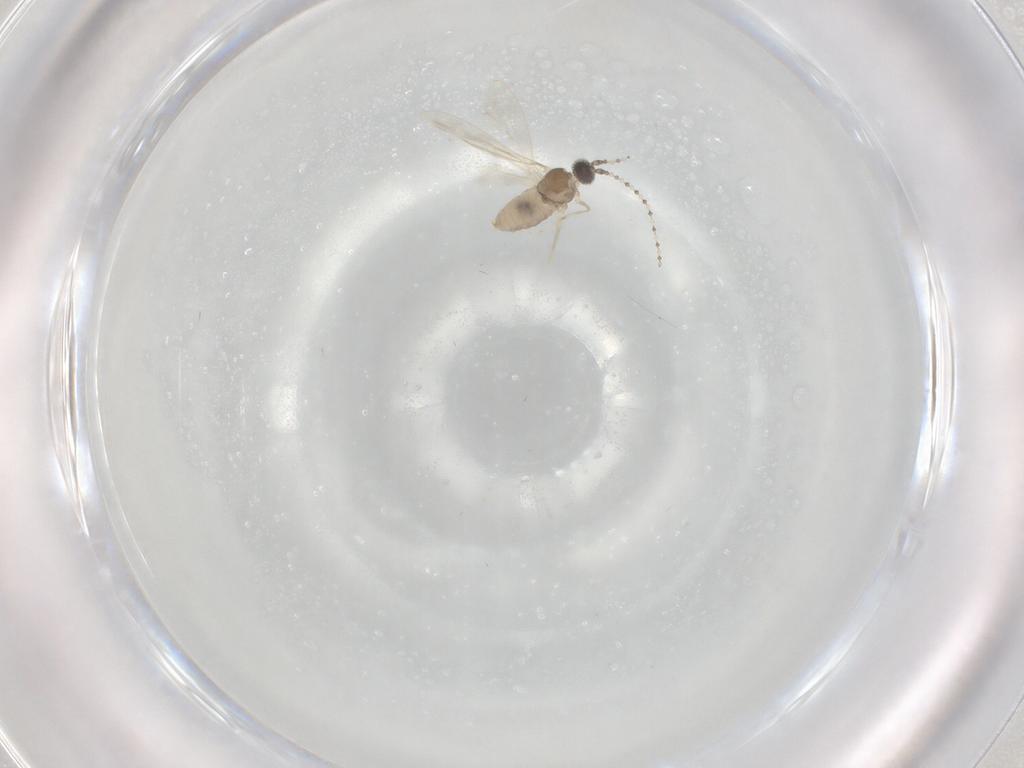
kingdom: Animalia
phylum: Arthropoda
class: Insecta
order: Diptera
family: Cecidomyiidae
